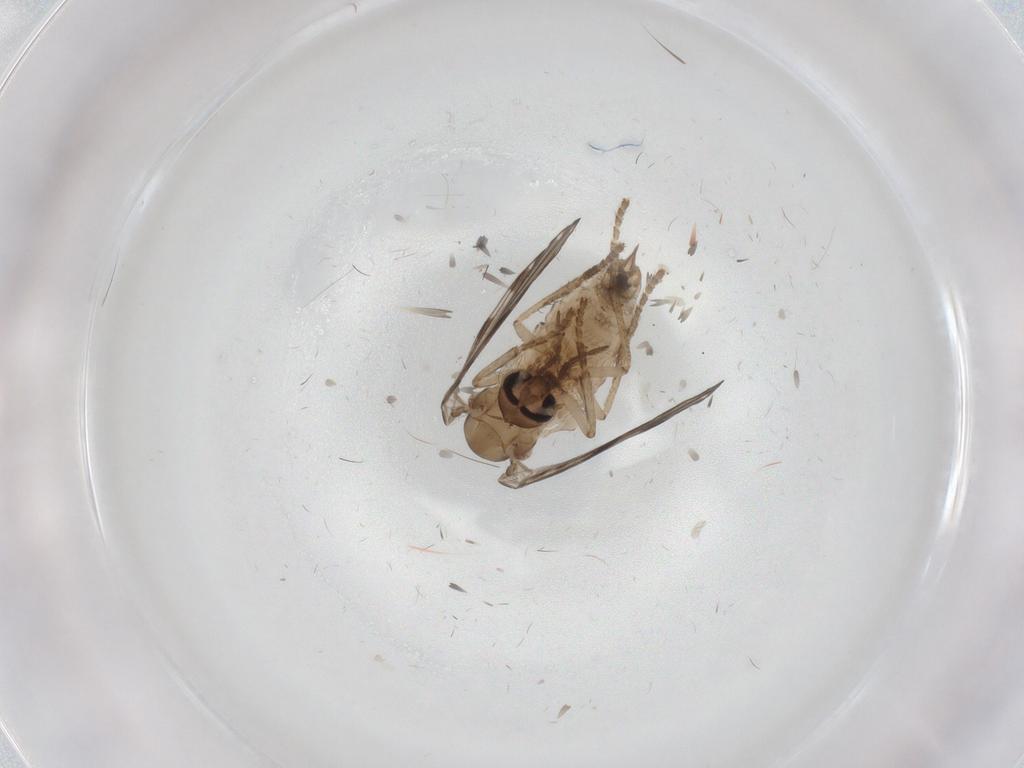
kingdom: Animalia
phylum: Arthropoda
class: Insecta
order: Diptera
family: Psychodidae
